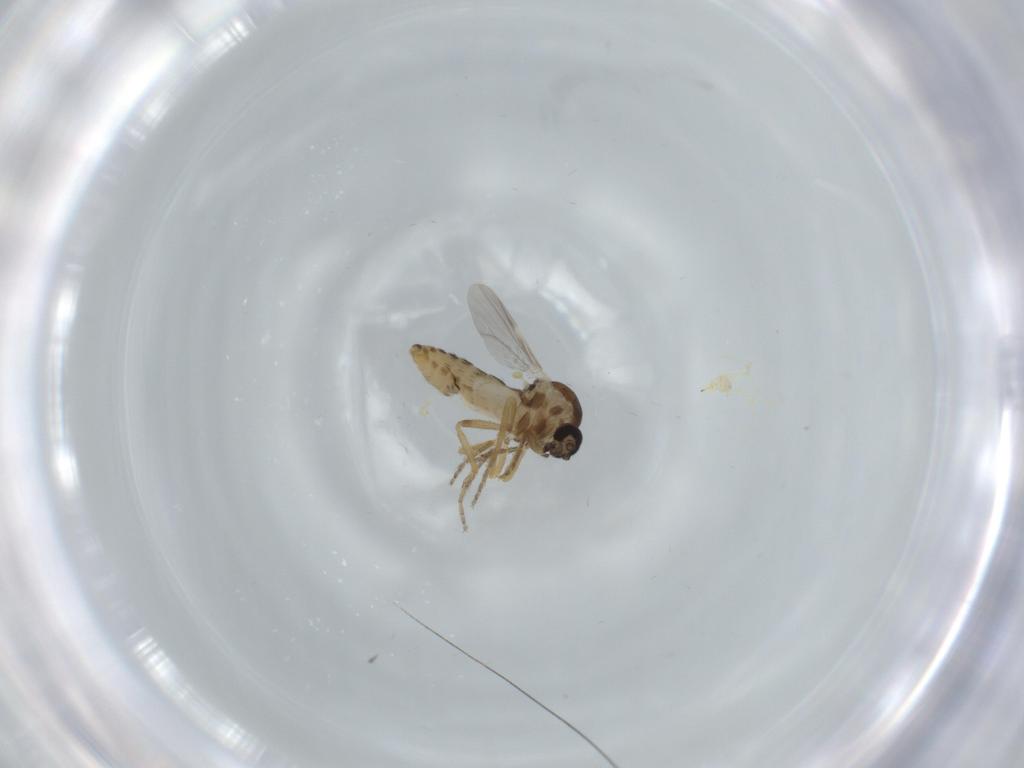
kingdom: Animalia
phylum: Arthropoda
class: Insecta
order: Diptera
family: Ceratopogonidae
